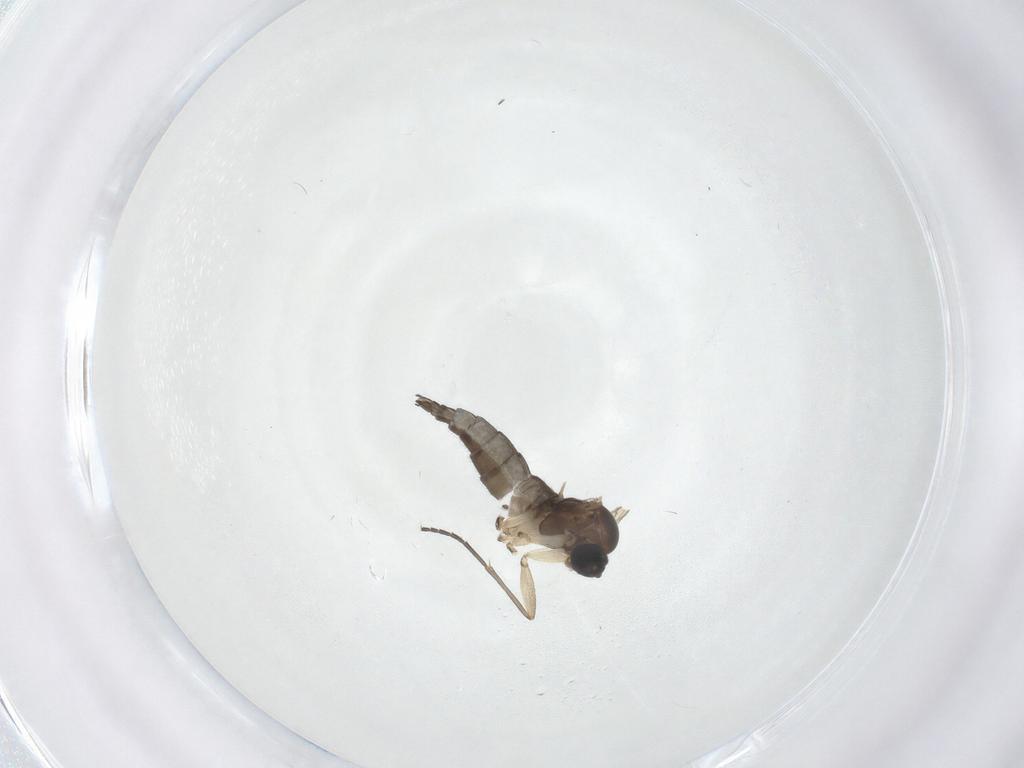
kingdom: Animalia
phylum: Arthropoda
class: Insecta
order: Diptera
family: Sciaridae
